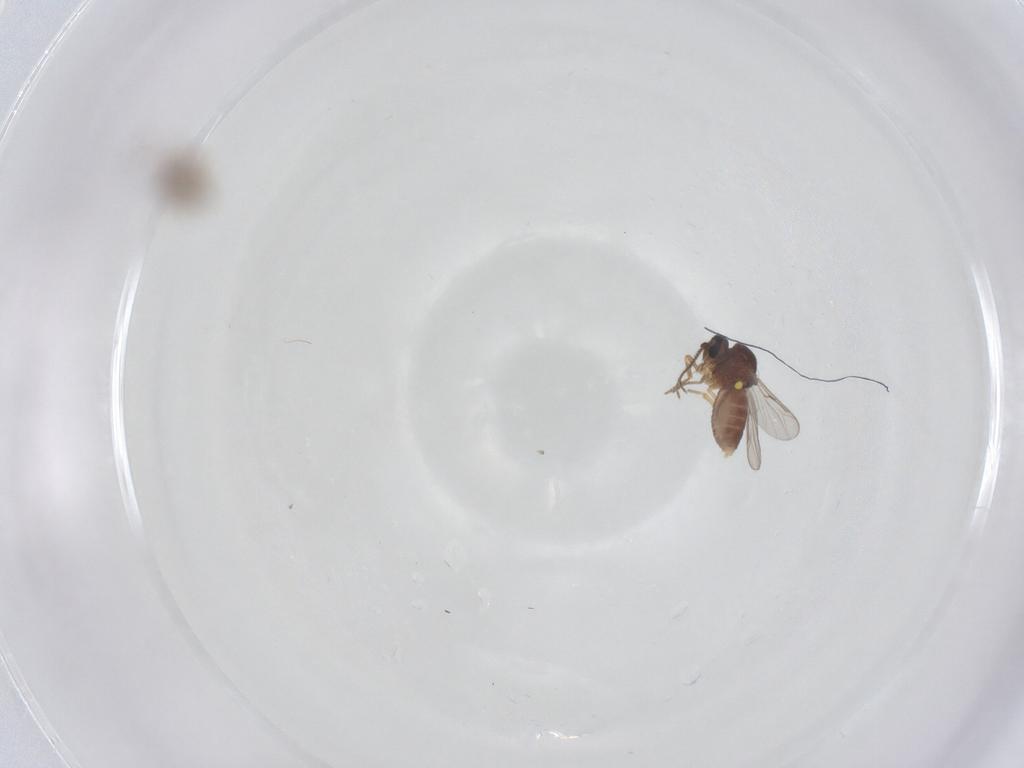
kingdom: Animalia
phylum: Arthropoda
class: Insecta
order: Diptera
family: Ceratopogonidae
